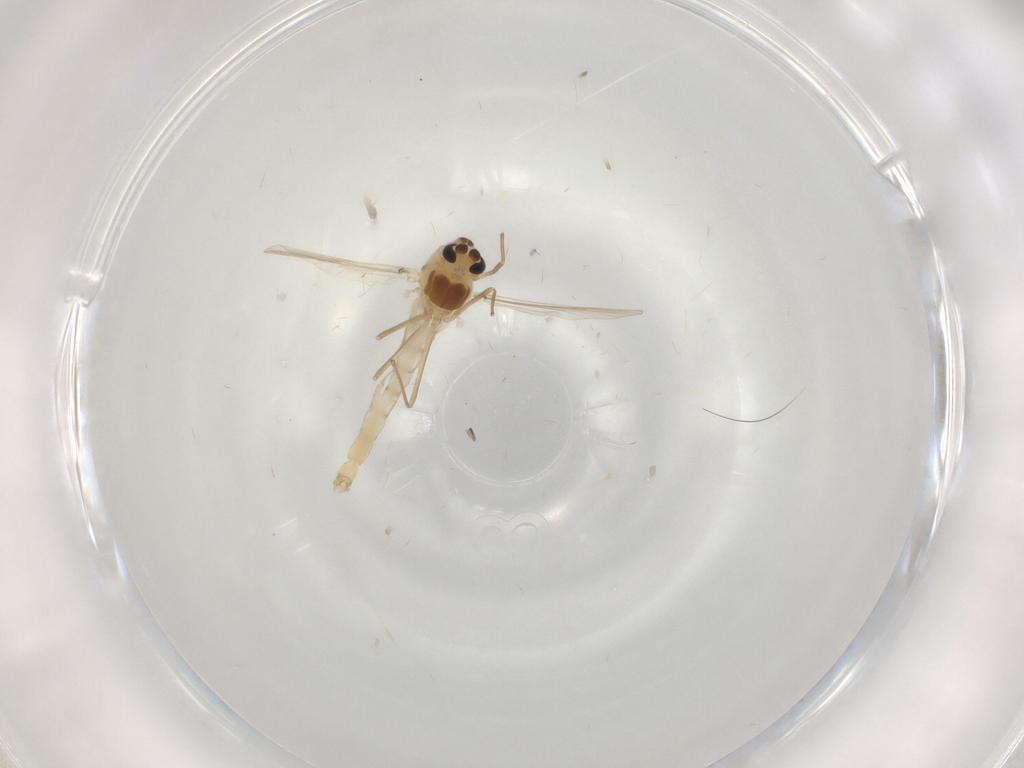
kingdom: Animalia
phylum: Arthropoda
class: Insecta
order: Diptera
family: Chironomidae
